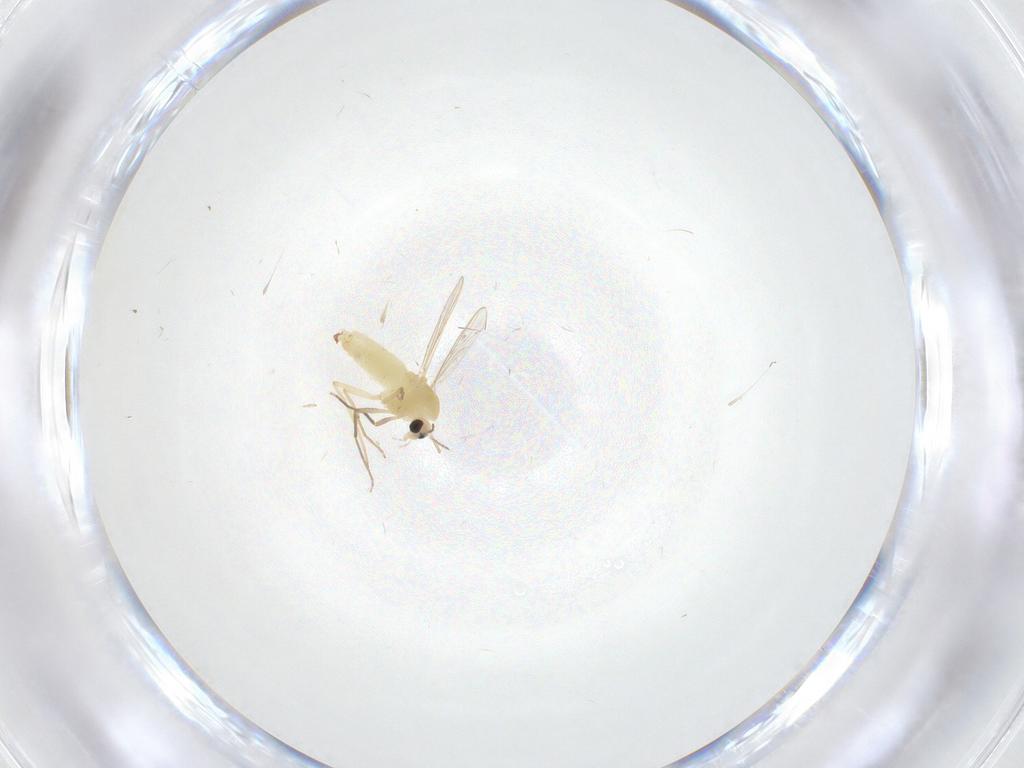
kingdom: Animalia
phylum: Arthropoda
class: Insecta
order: Diptera
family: Chironomidae
